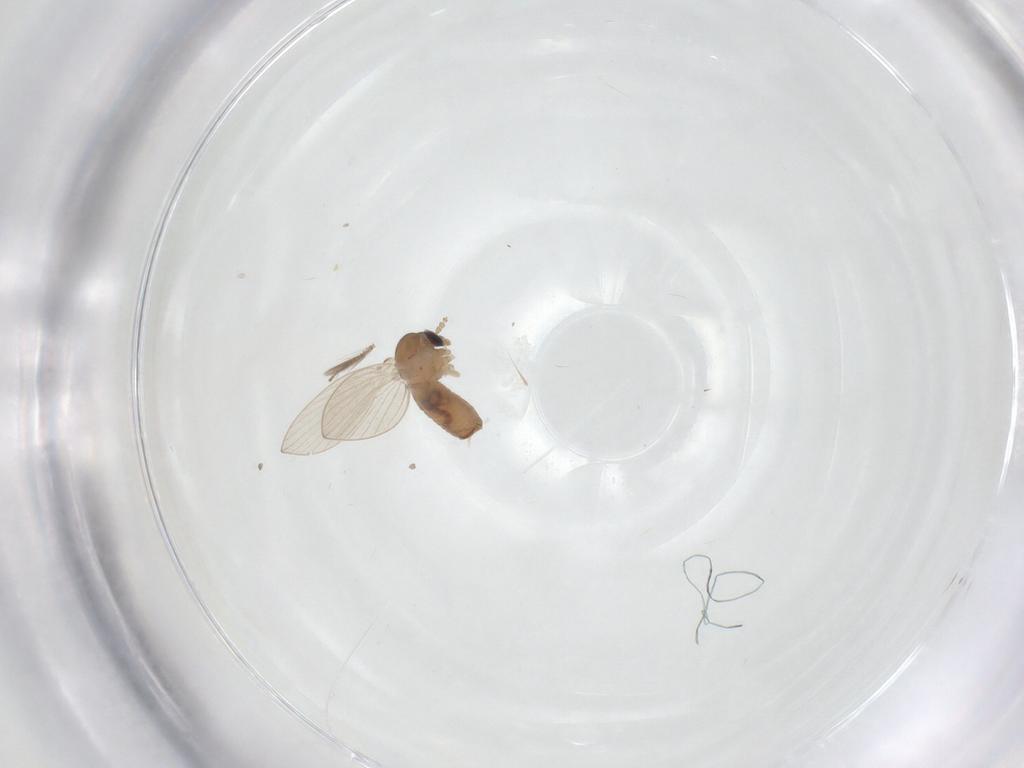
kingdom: Animalia
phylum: Arthropoda
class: Insecta
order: Diptera
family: Psychodidae
